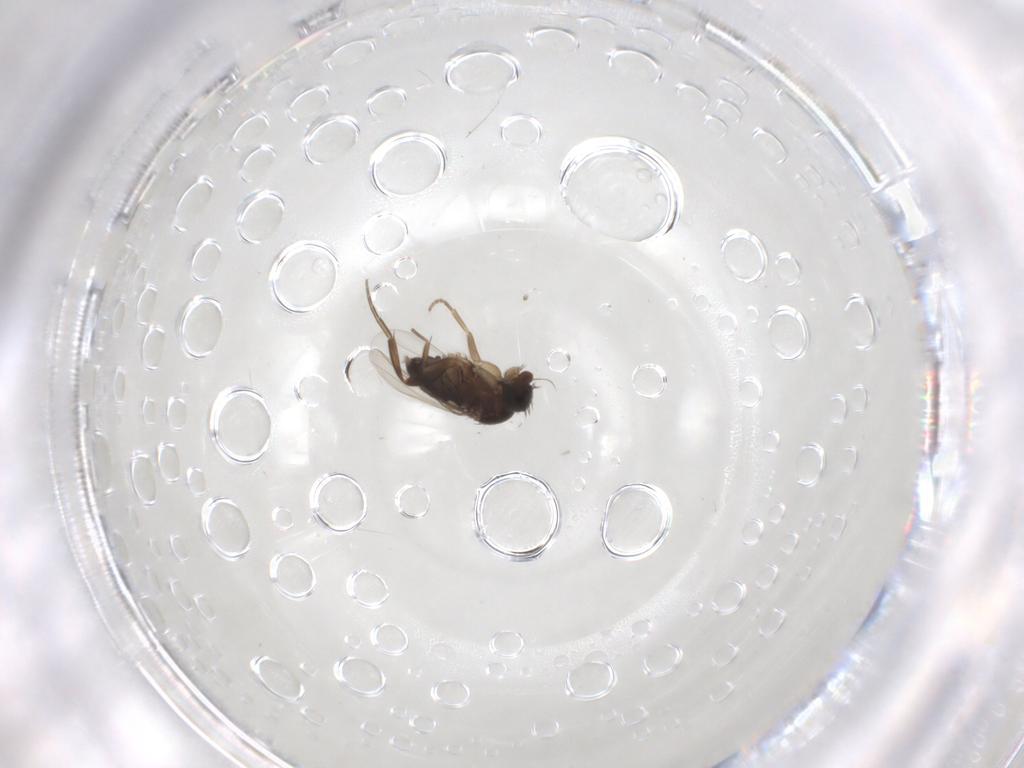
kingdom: Animalia
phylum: Arthropoda
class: Insecta
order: Diptera
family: Phoridae
